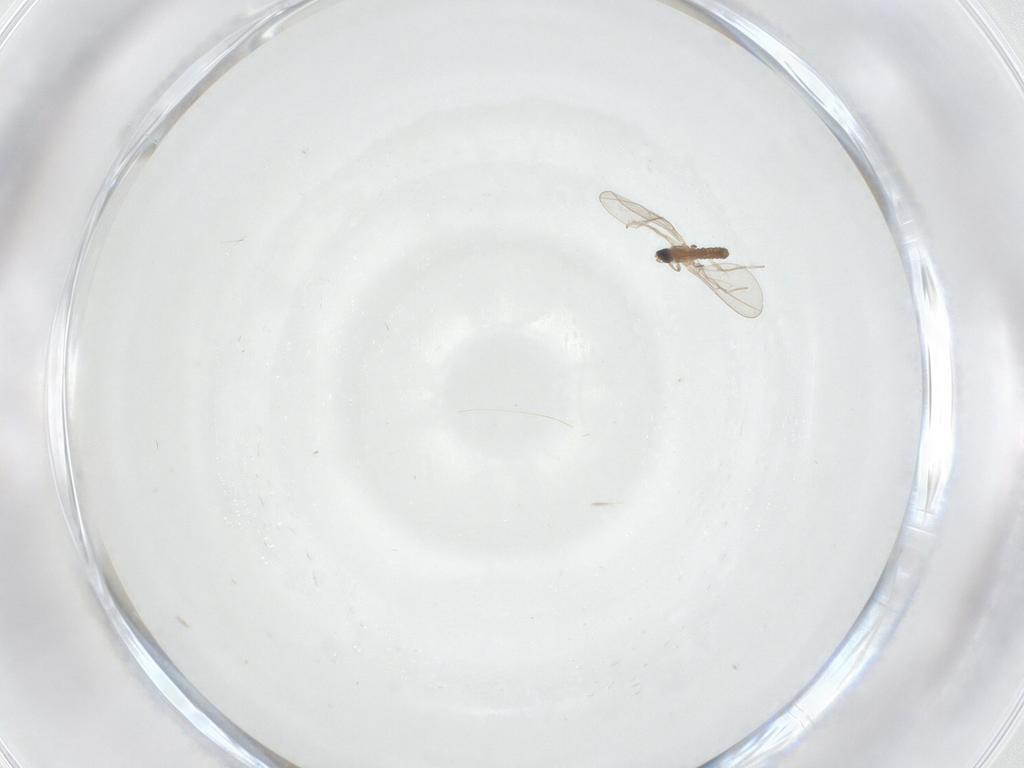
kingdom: Animalia
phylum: Arthropoda
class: Insecta
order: Diptera
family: Cecidomyiidae
